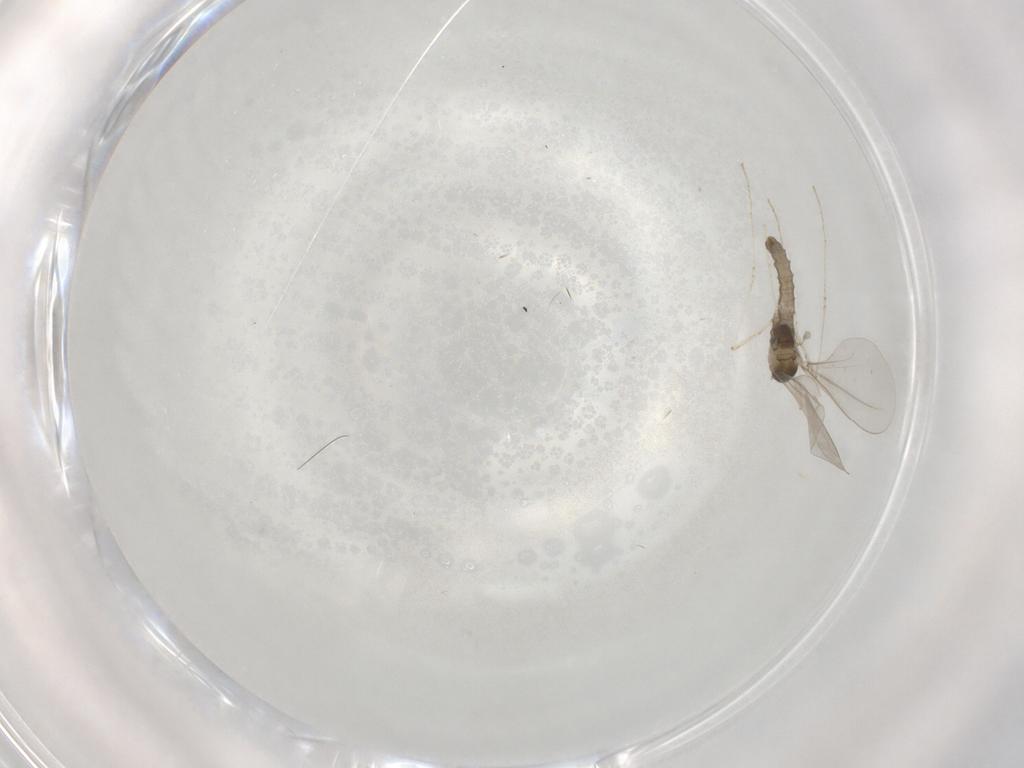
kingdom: Animalia
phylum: Arthropoda
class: Insecta
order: Diptera
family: Cecidomyiidae
